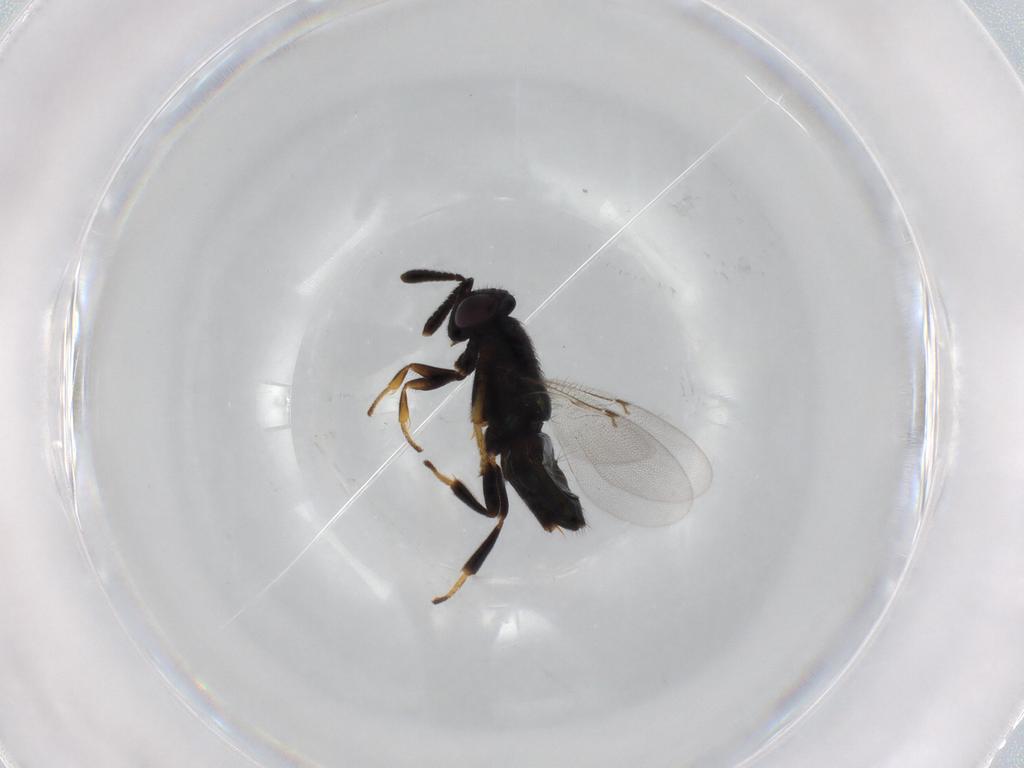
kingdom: Animalia
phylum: Arthropoda
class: Insecta
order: Hymenoptera
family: Encyrtidae
